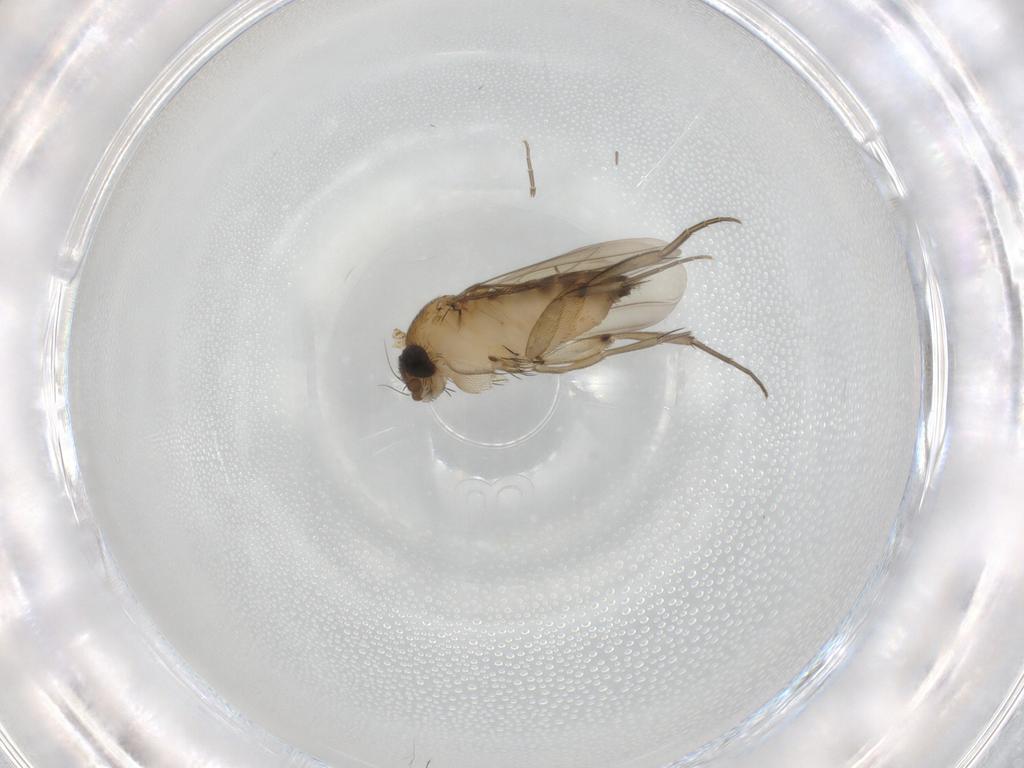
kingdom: Animalia
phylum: Arthropoda
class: Insecta
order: Diptera
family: Phoridae
